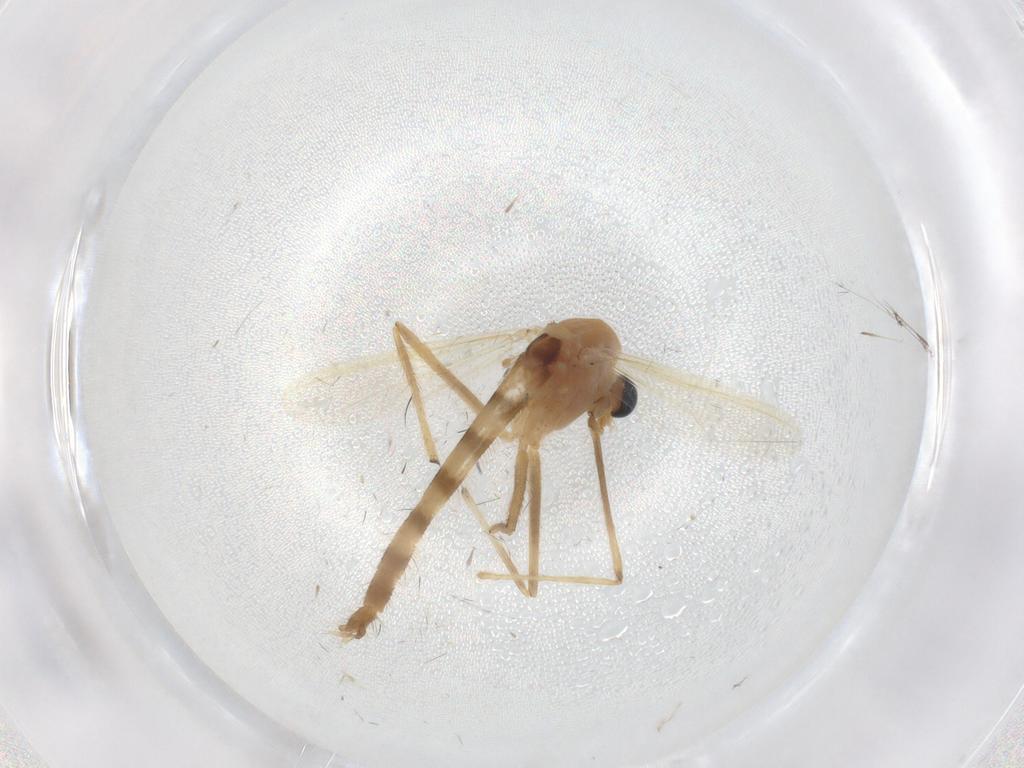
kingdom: Animalia
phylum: Arthropoda
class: Insecta
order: Diptera
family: Chironomidae
